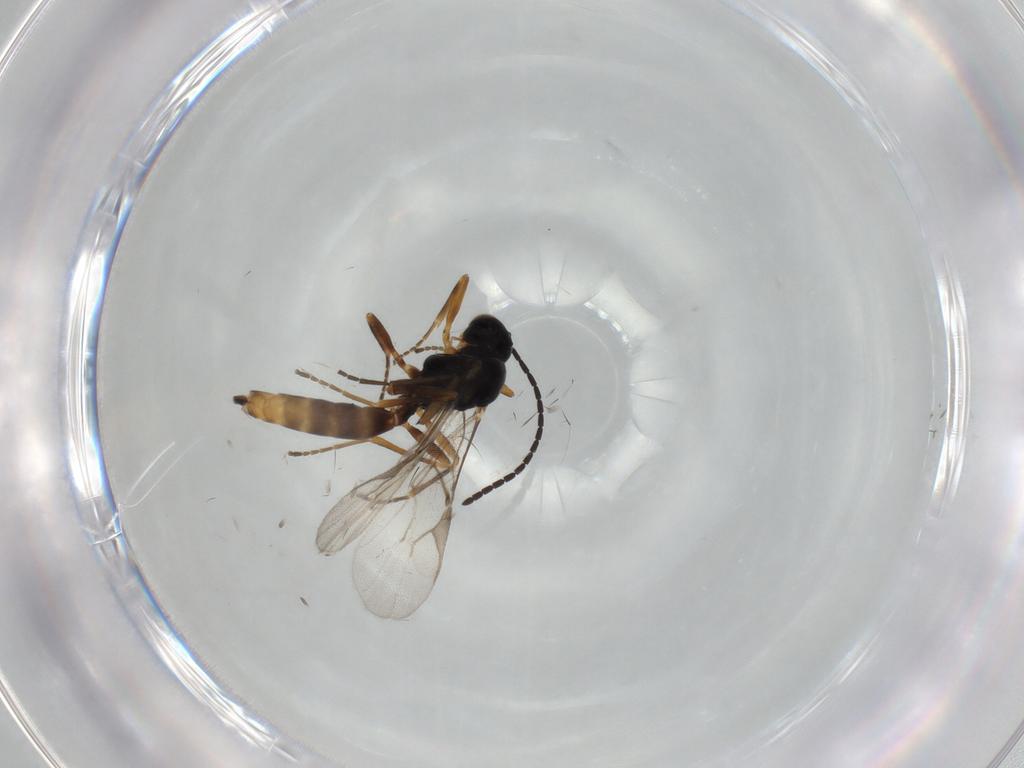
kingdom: Animalia
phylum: Arthropoda
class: Insecta
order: Hymenoptera
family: Braconidae
